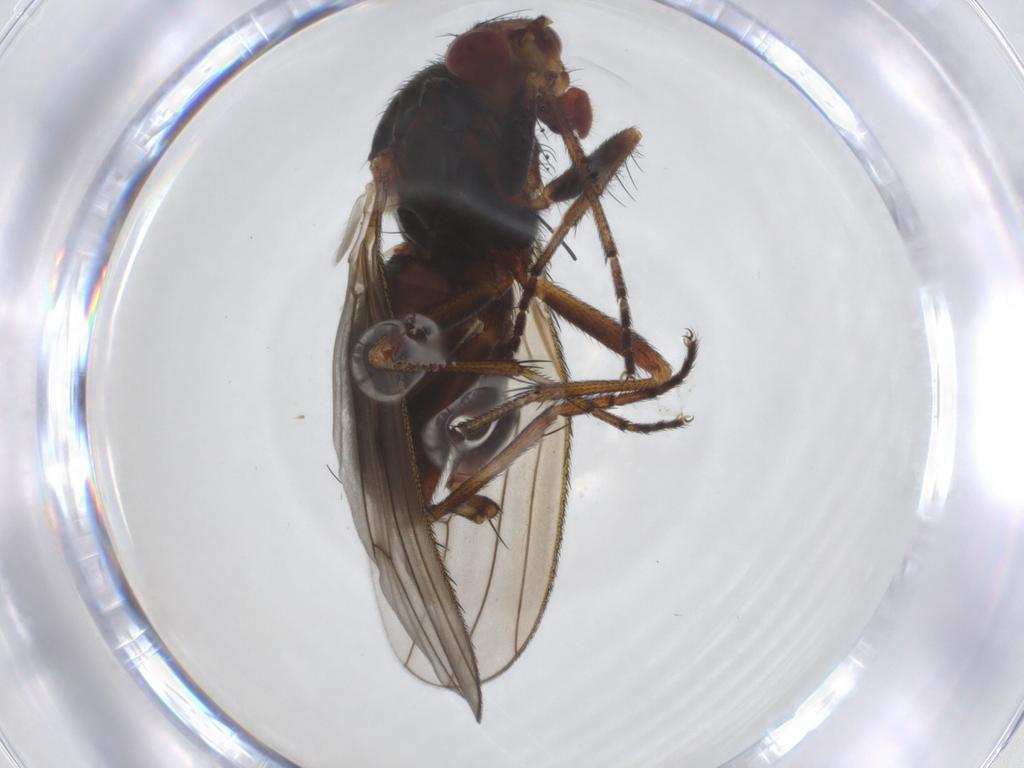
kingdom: Animalia
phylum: Arthropoda
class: Insecta
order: Diptera
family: Heleomyzidae
